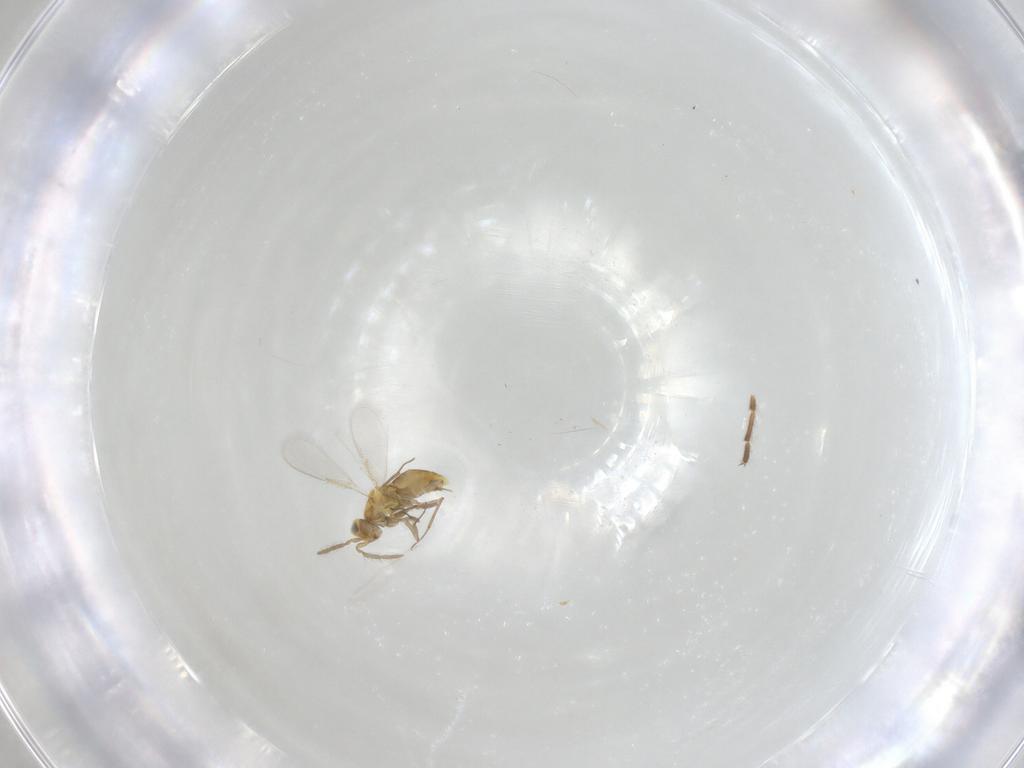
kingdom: Animalia
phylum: Arthropoda
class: Insecta
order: Hymenoptera
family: Aphelinidae
